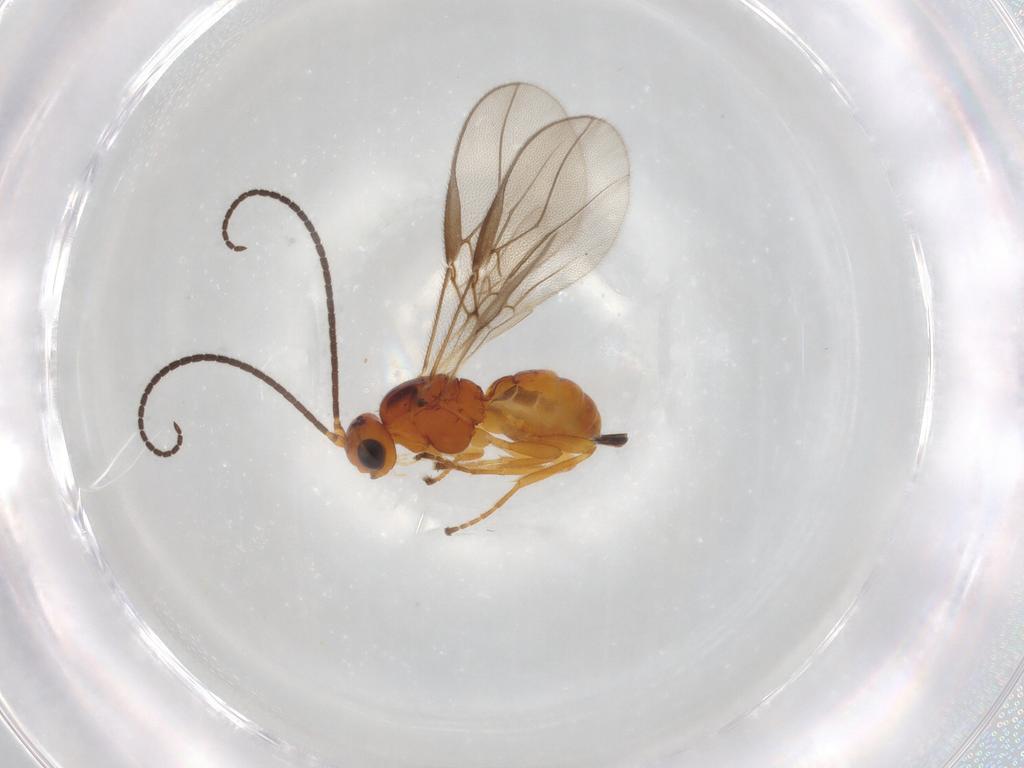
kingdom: Animalia
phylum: Arthropoda
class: Insecta
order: Hymenoptera
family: Braconidae
